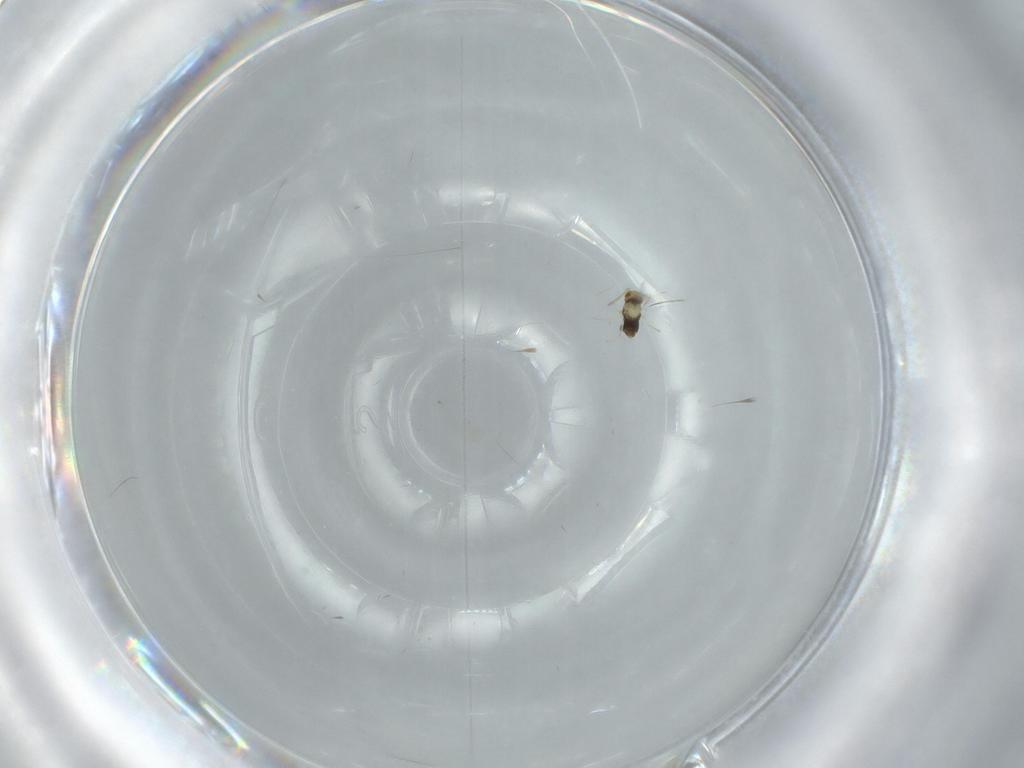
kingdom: Animalia
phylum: Arthropoda
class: Insecta
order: Hymenoptera
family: Aphelinidae
